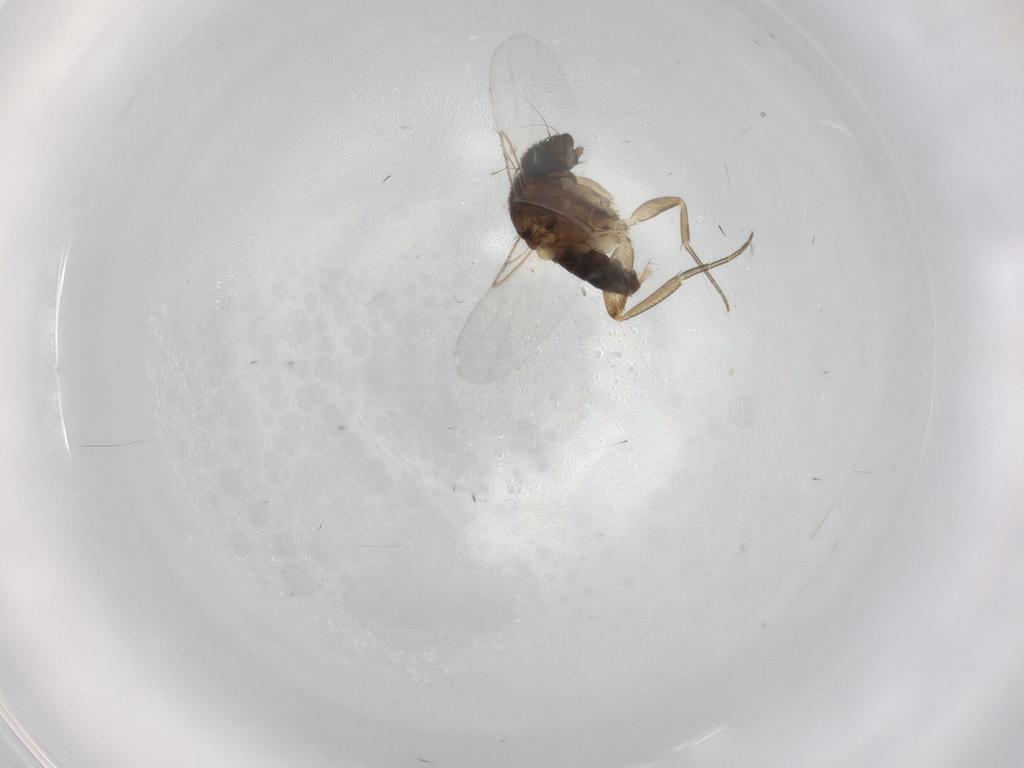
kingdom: Animalia
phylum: Arthropoda
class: Insecta
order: Diptera
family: Phoridae
